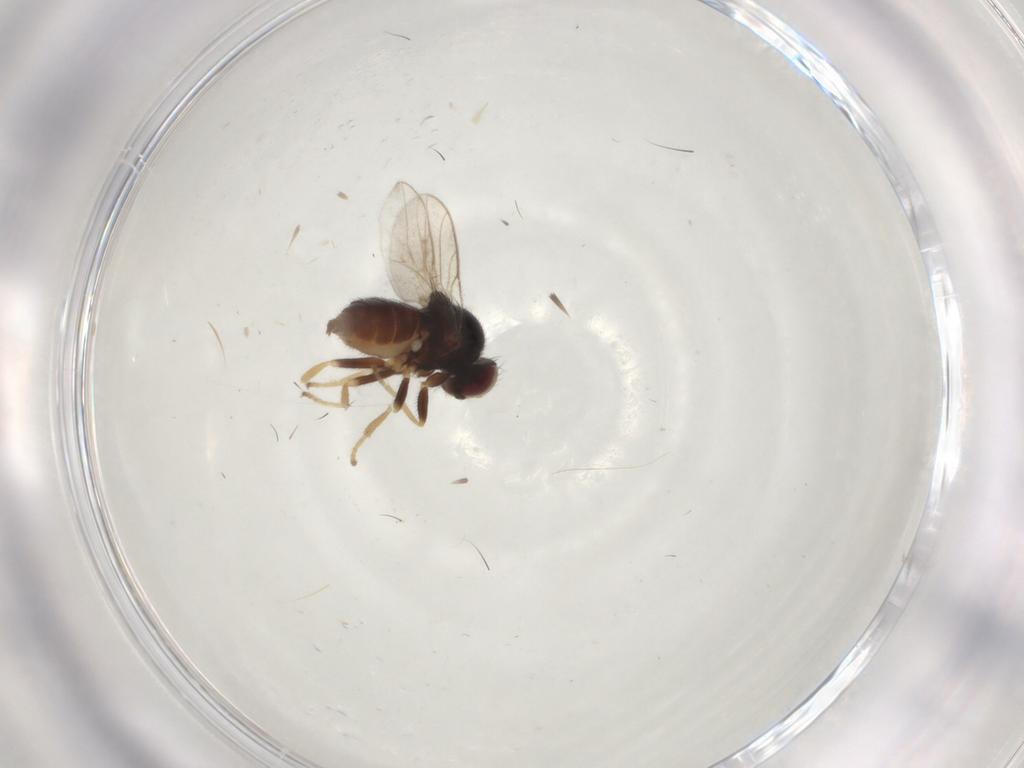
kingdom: Animalia
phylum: Arthropoda
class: Insecta
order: Diptera
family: Chloropidae
